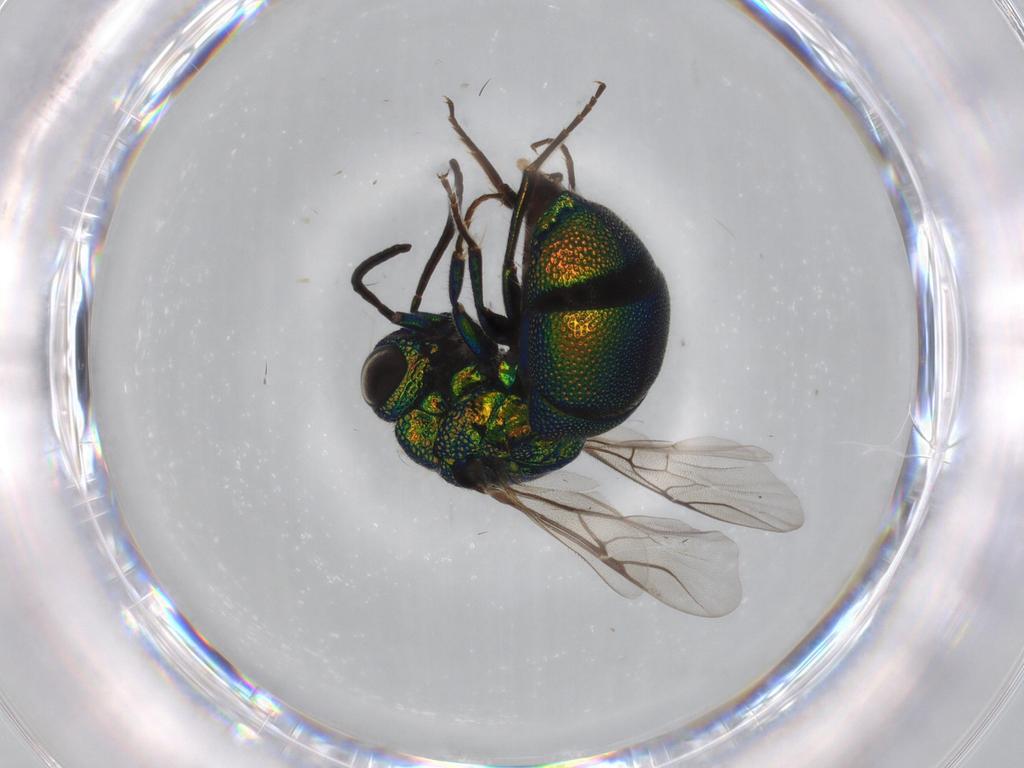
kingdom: Animalia
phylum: Arthropoda
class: Insecta
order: Hymenoptera
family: Chrysididae
